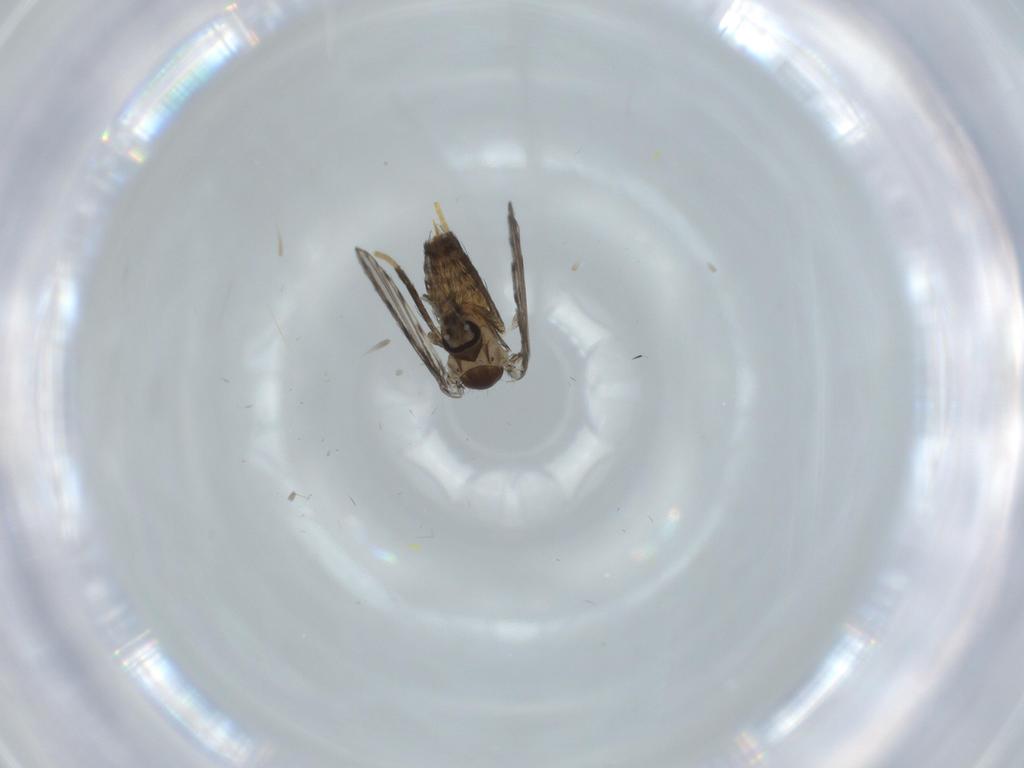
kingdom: Animalia
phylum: Arthropoda
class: Insecta
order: Diptera
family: Psychodidae
